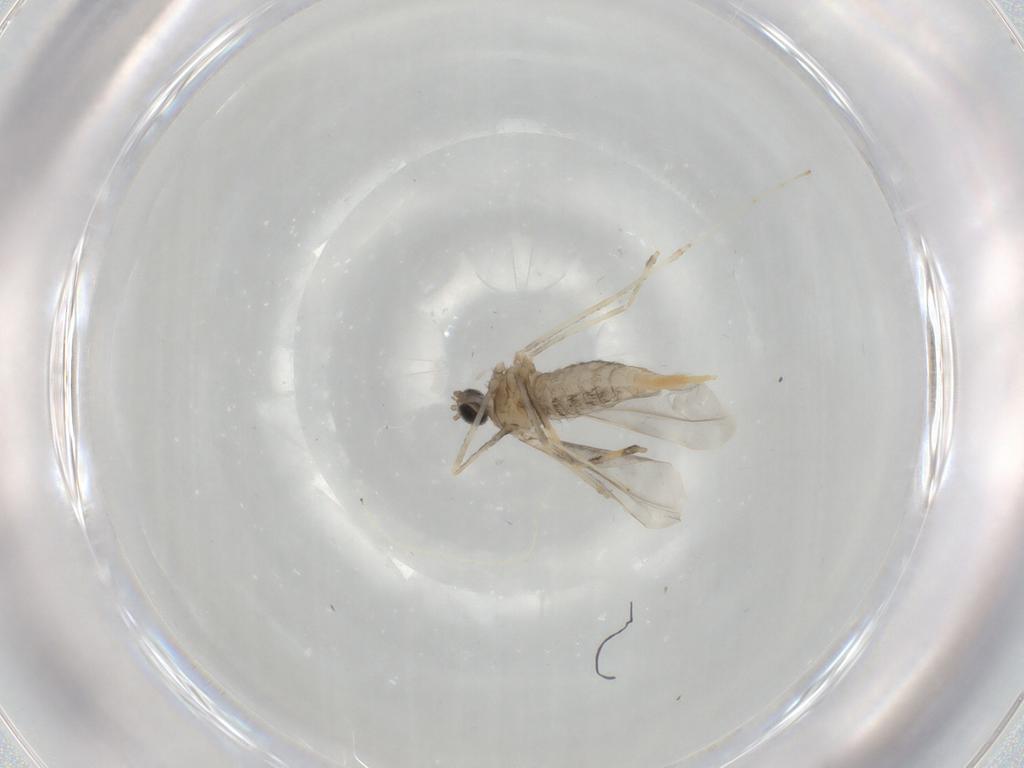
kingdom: Animalia
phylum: Arthropoda
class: Insecta
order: Diptera
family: Cecidomyiidae
